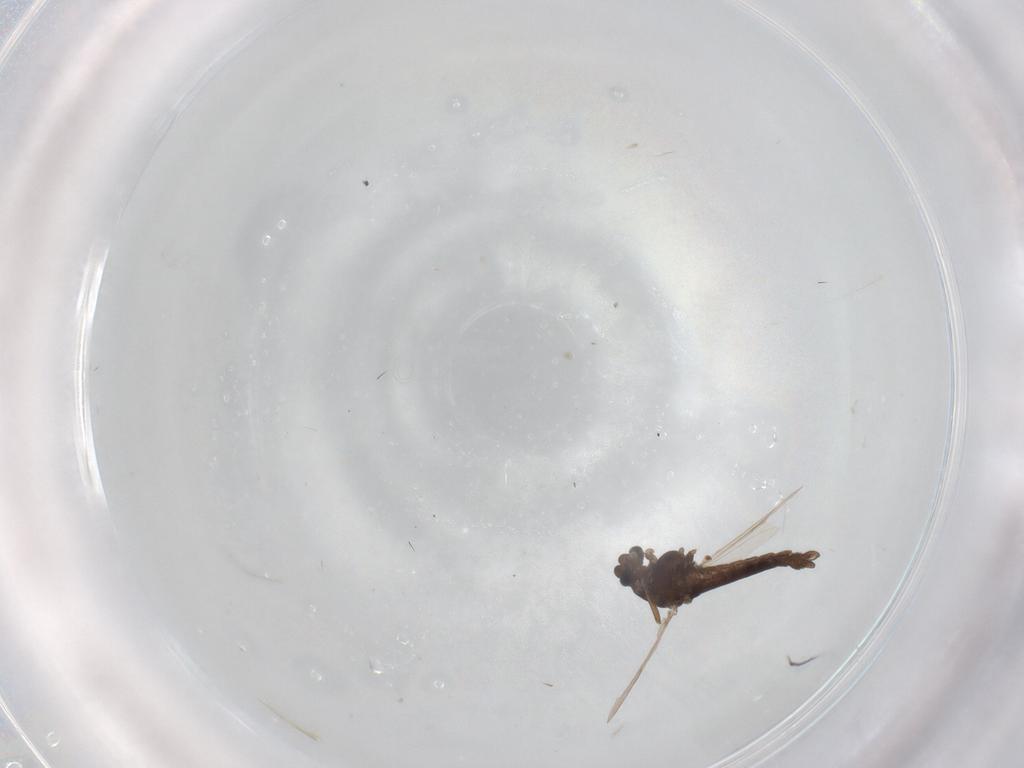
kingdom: Animalia
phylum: Arthropoda
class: Insecta
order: Diptera
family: Chironomidae
